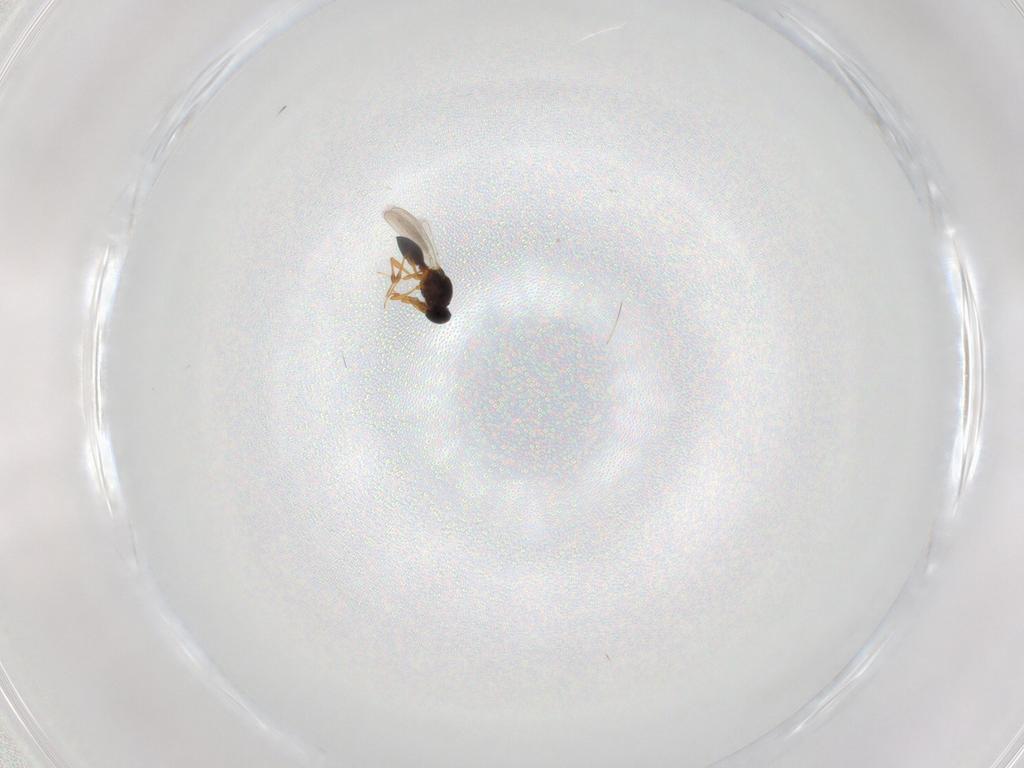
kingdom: Animalia
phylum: Arthropoda
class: Insecta
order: Hymenoptera
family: Platygastridae
